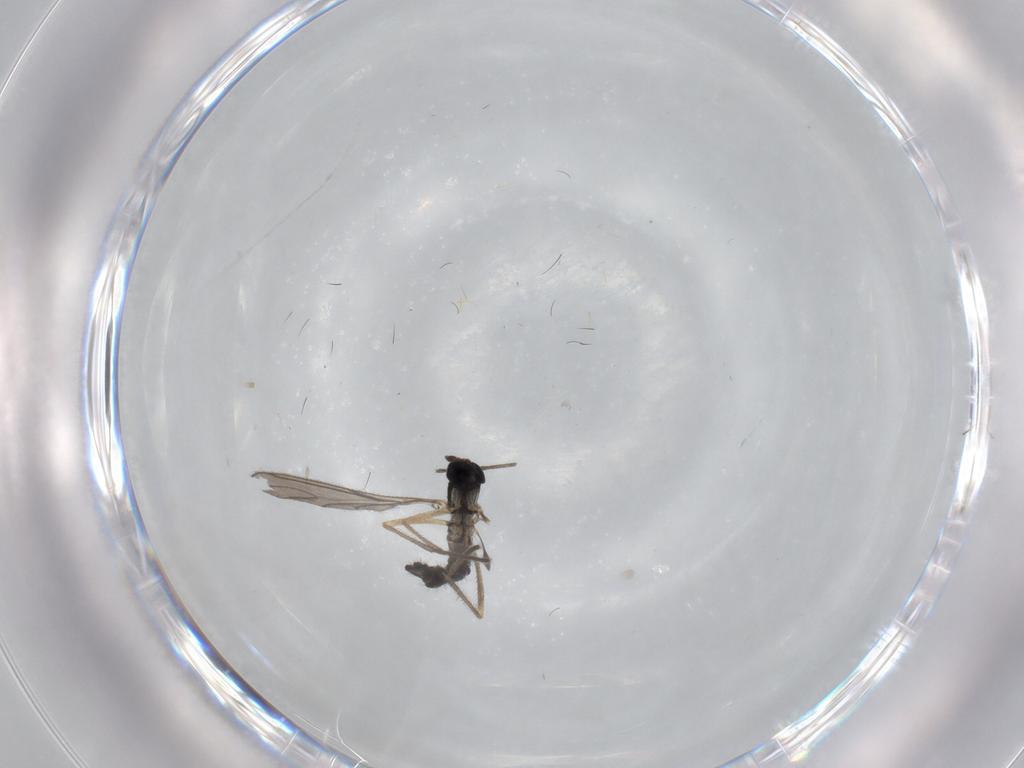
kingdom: Animalia
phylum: Arthropoda
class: Insecta
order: Diptera
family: Sciaridae
